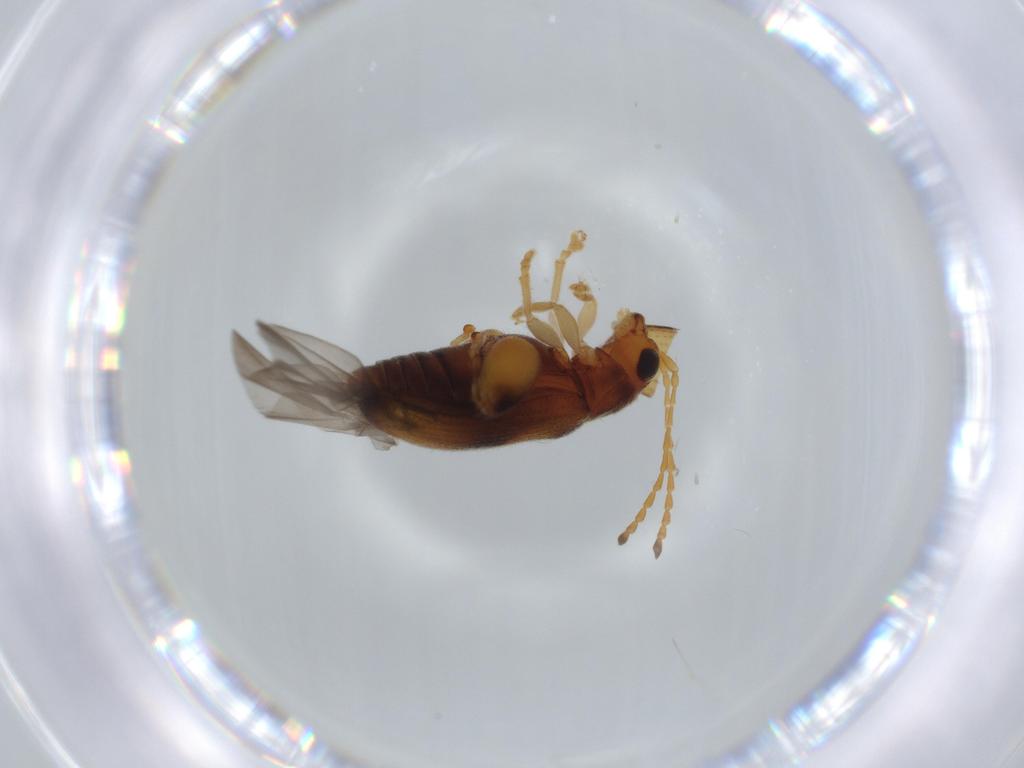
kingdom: Animalia
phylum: Arthropoda
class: Insecta
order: Coleoptera
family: Chrysomelidae
